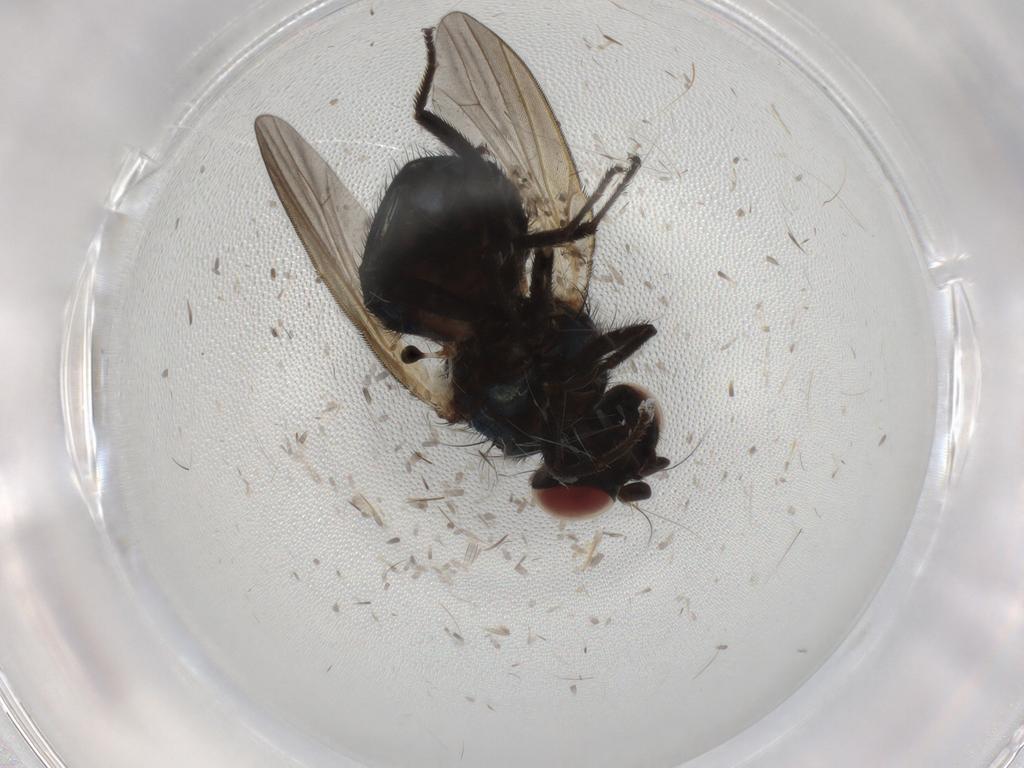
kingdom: Animalia
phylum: Arthropoda
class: Insecta
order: Diptera
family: Lonchaeidae
